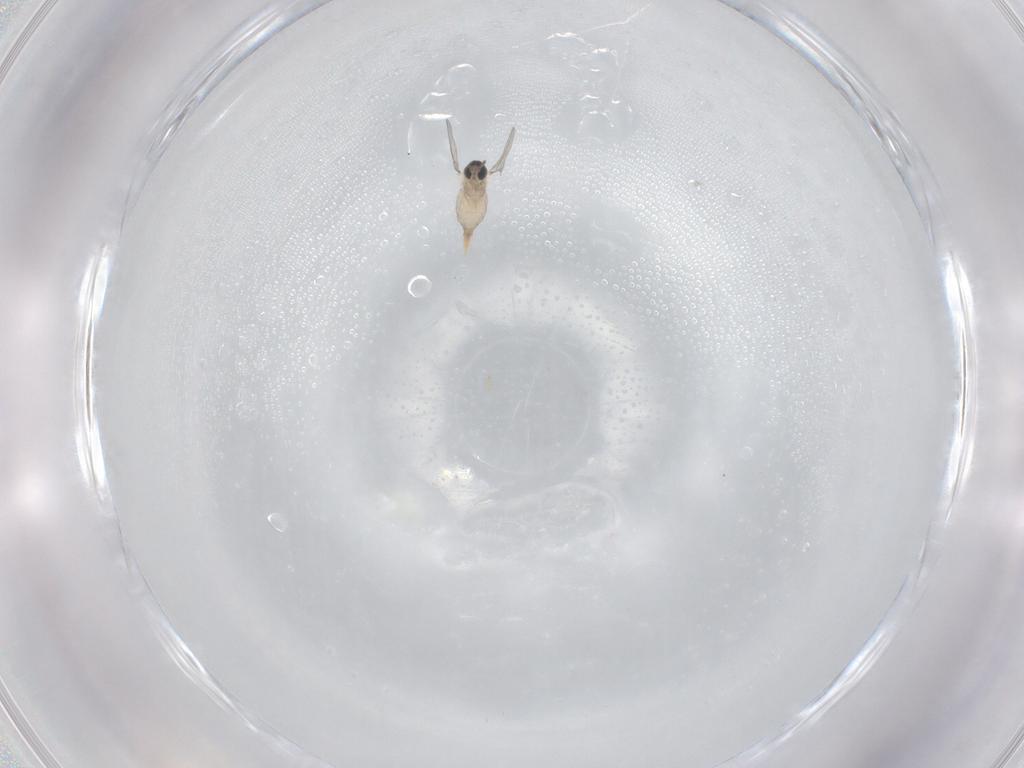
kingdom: Animalia
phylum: Arthropoda
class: Insecta
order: Diptera
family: Cecidomyiidae
